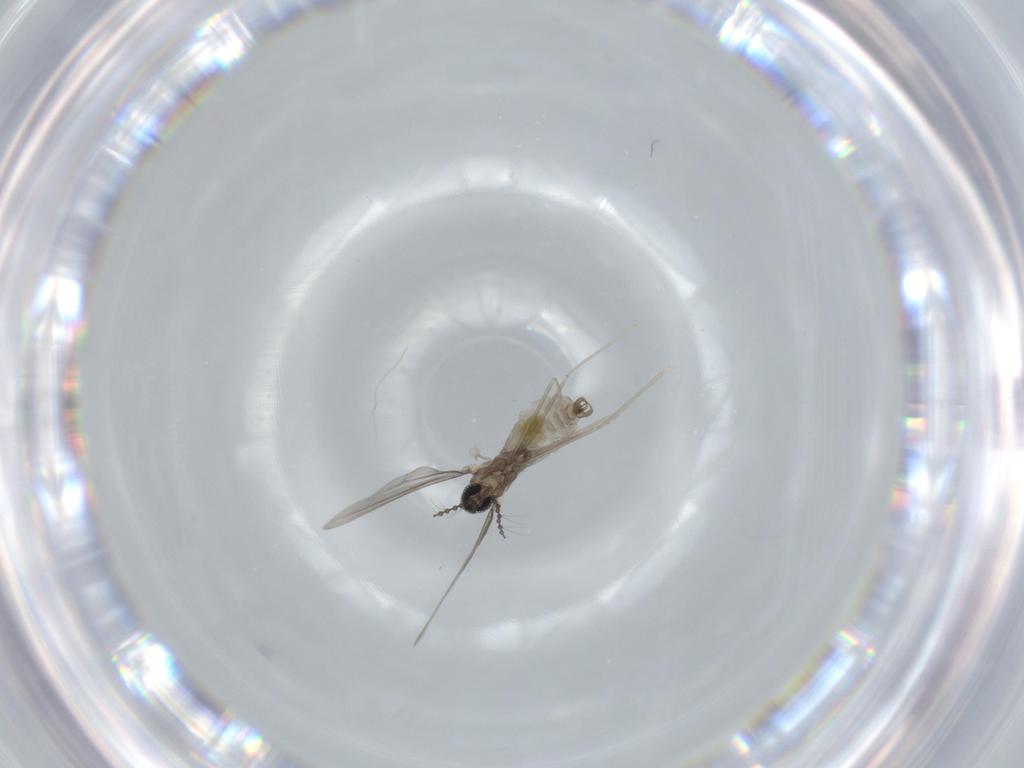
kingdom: Animalia
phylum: Arthropoda
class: Insecta
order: Diptera
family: Cecidomyiidae
